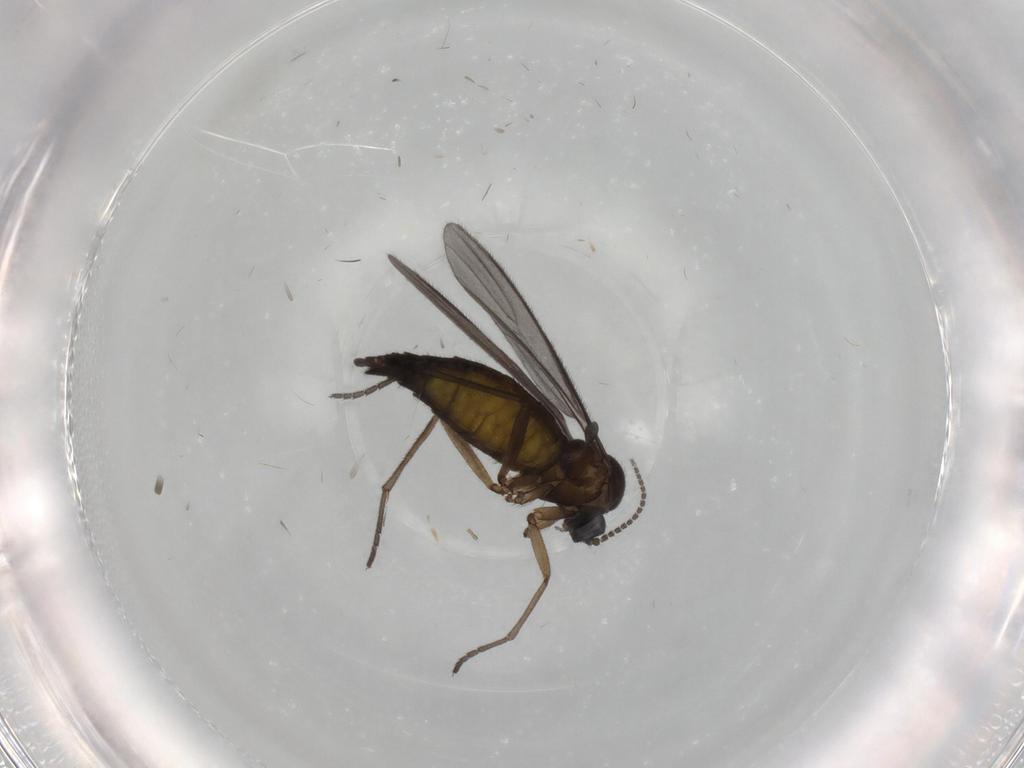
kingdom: Animalia
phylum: Arthropoda
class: Insecta
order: Diptera
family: Sciaridae
